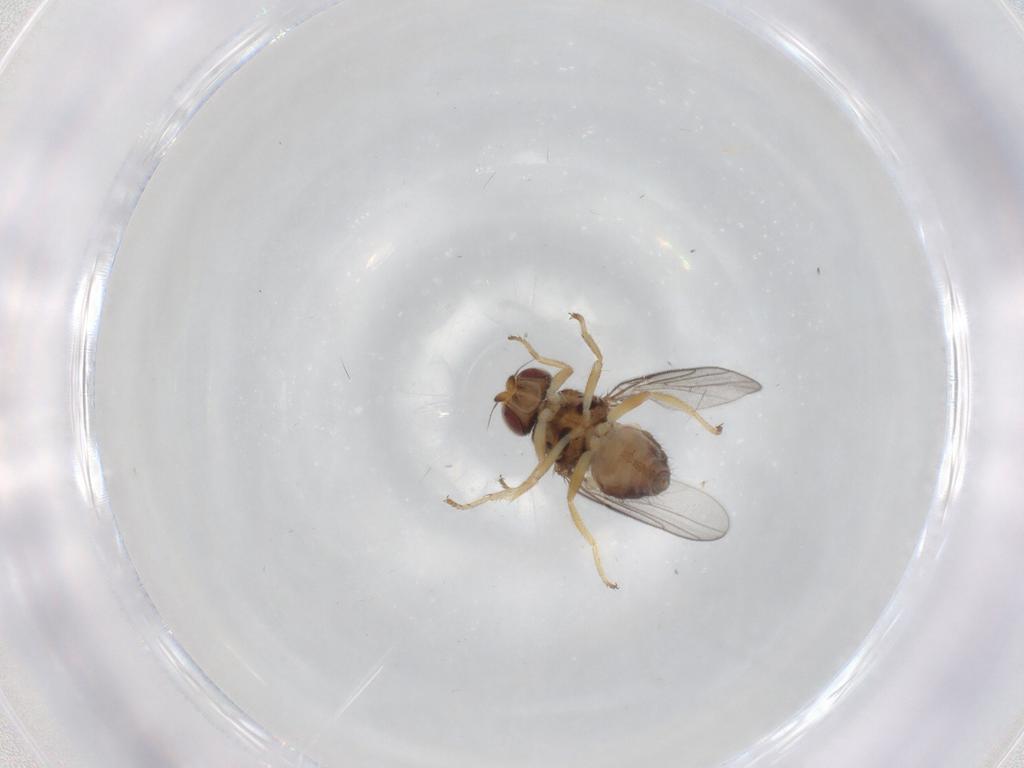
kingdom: Animalia
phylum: Arthropoda
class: Insecta
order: Diptera
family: Chloropidae
